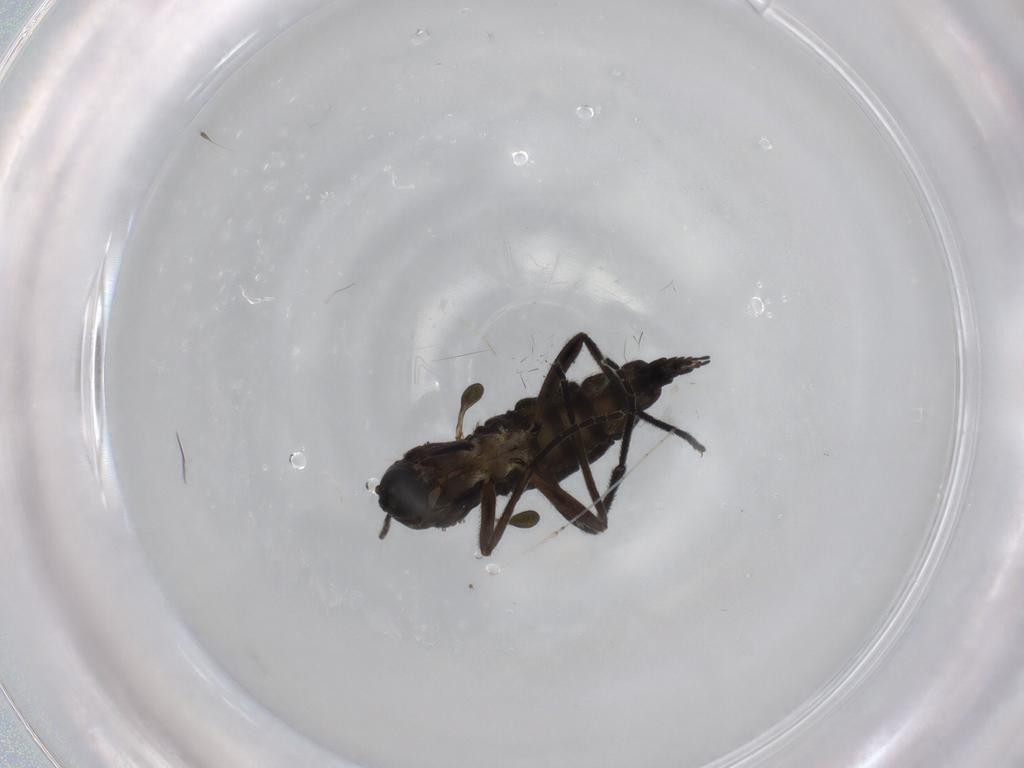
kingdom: Animalia
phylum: Arthropoda
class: Insecta
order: Diptera
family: Sciaridae
